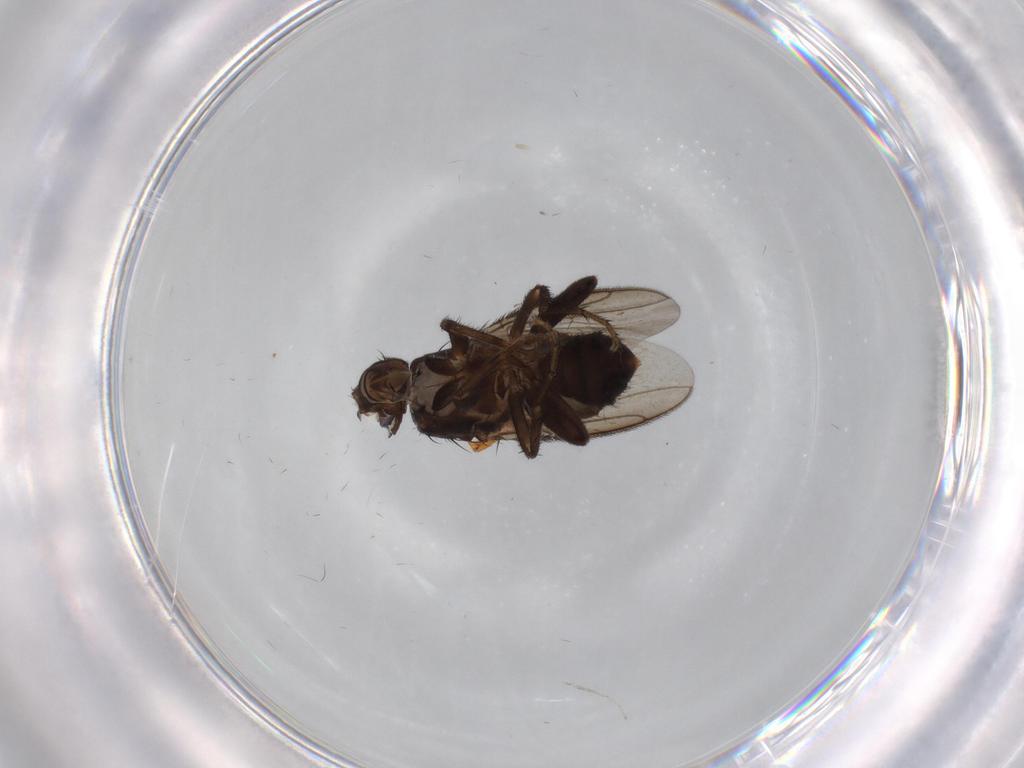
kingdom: Animalia
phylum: Arthropoda
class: Insecta
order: Diptera
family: Sphaeroceridae
